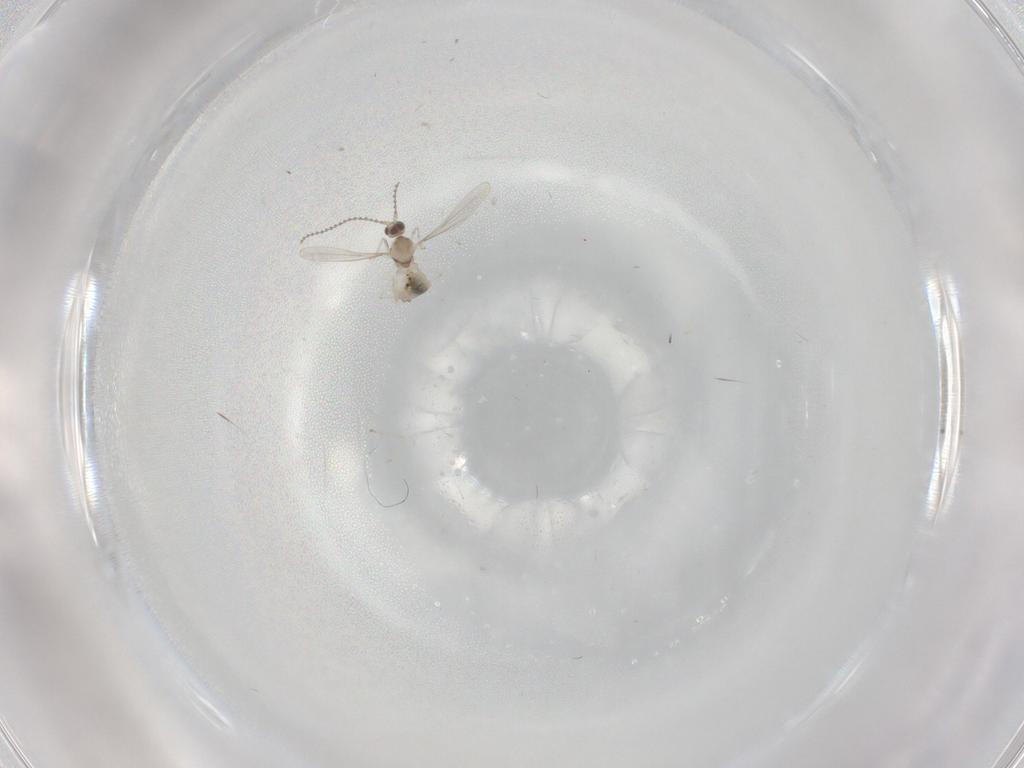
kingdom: Animalia
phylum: Arthropoda
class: Insecta
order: Diptera
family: Cecidomyiidae
